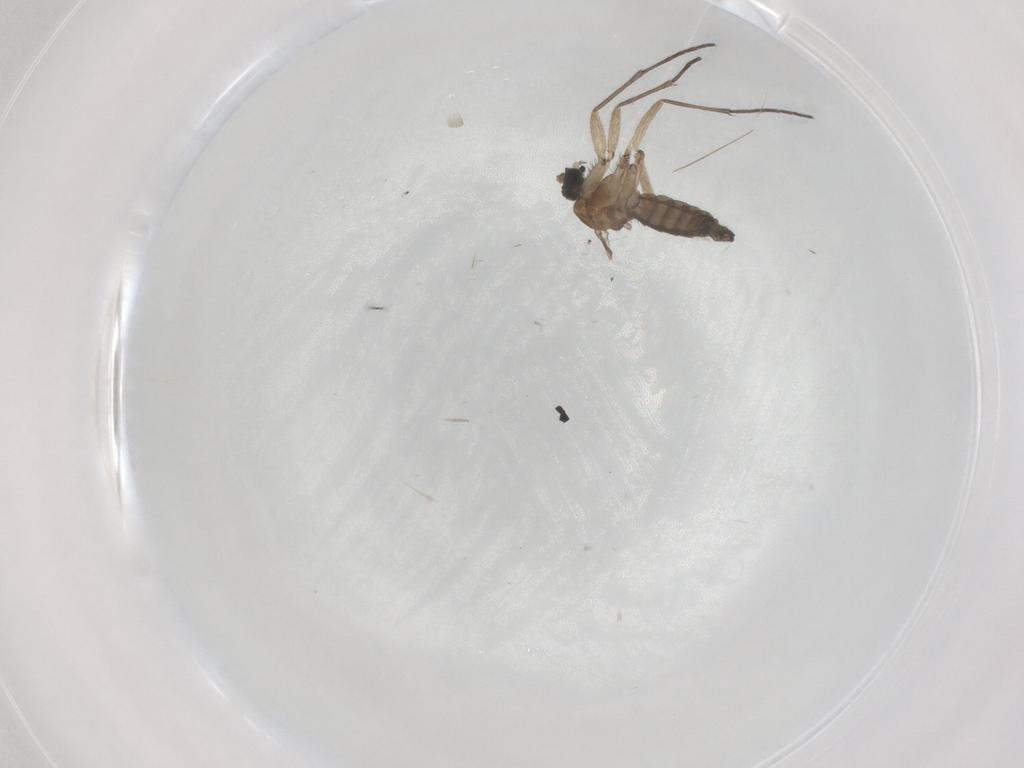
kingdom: Animalia
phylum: Arthropoda
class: Insecta
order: Diptera
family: Sciaridae
